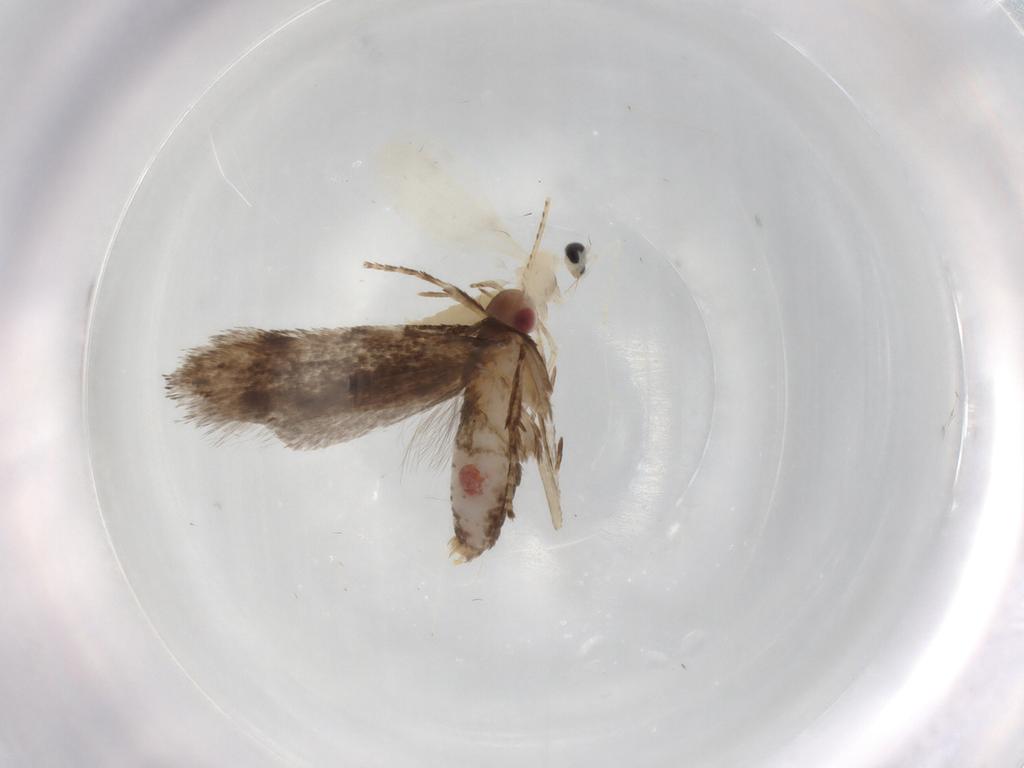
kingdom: Animalia
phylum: Arthropoda
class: Insecta
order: Diptera
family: Cecidomyiidae
